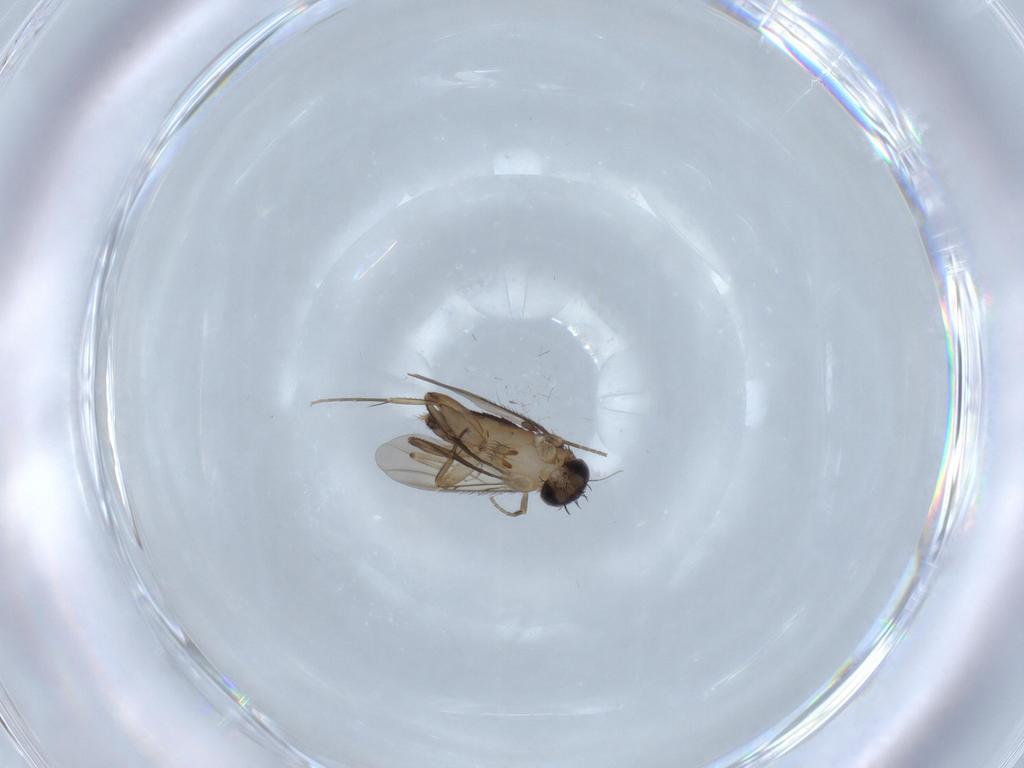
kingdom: Animalia
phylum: Arthropoda
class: Insecta
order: Diptera
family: Phoridae
